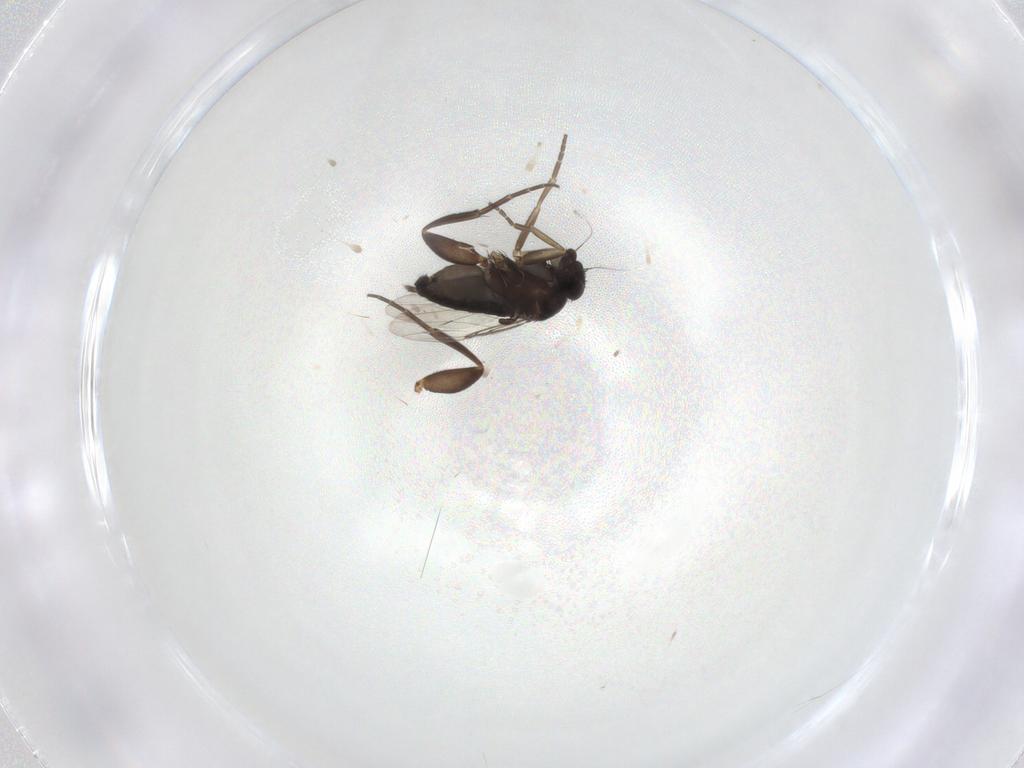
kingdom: Animalia
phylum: Arthropoda
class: Insecta
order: Diptera
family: Phoridae
